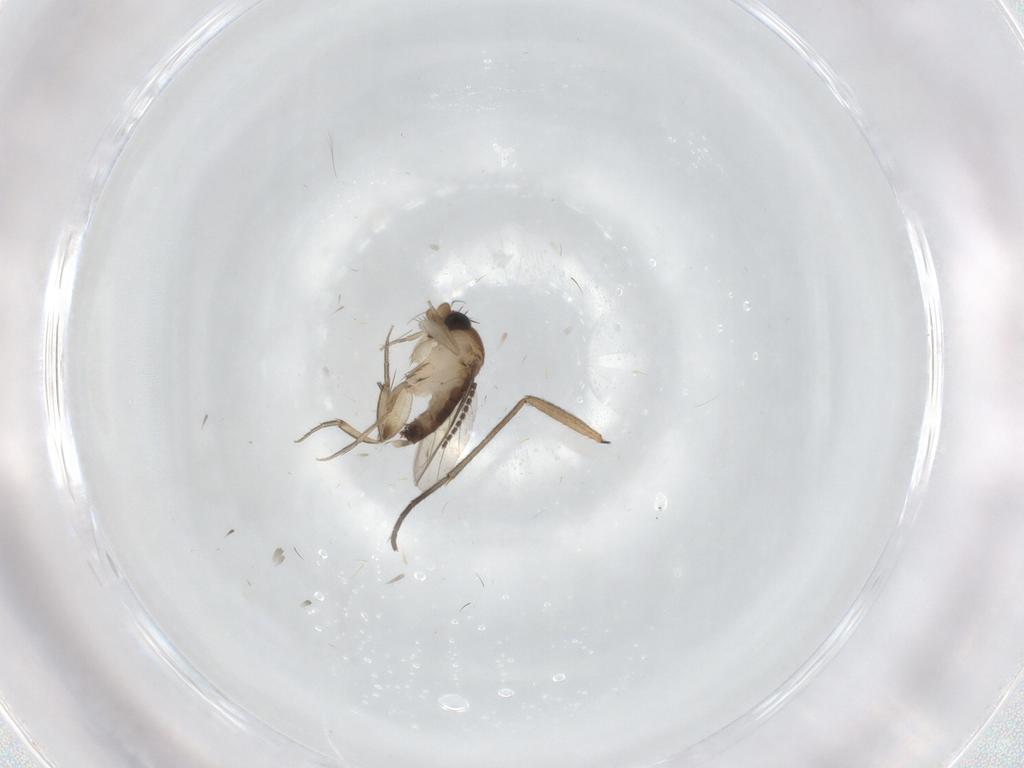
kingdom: Animalia
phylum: Arthropoda
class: Insecta
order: Diptera
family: Phoridae
